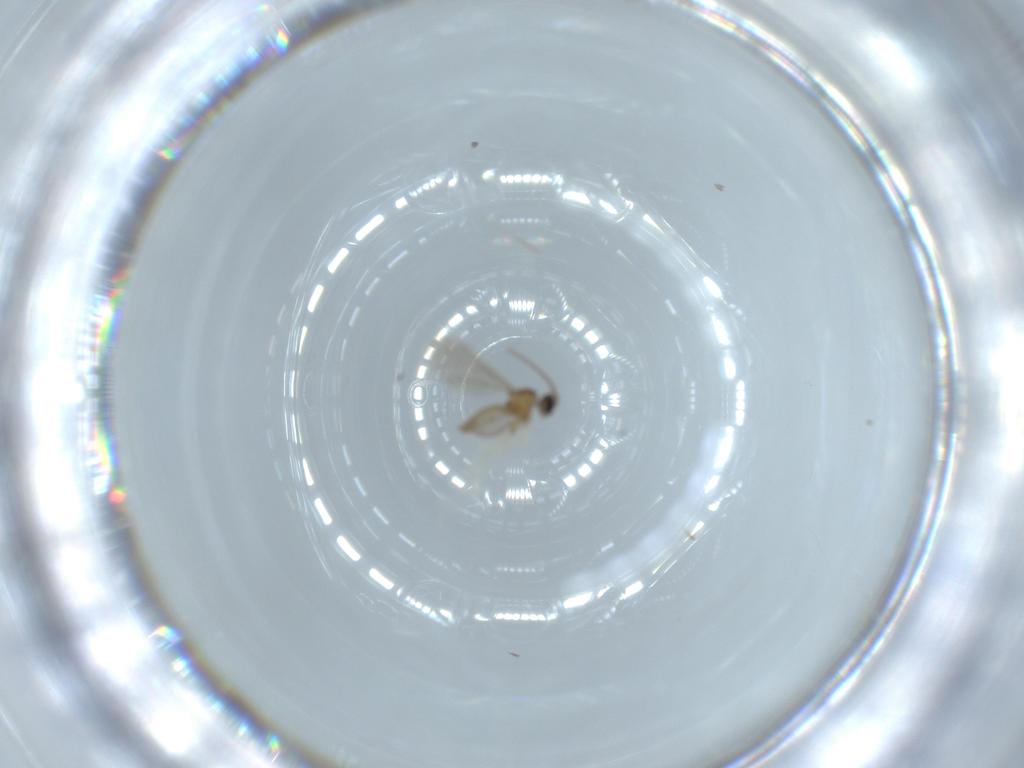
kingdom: Animalia
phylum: Arthropoda
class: Insecta
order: Diptera
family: Cecidomyiidae
